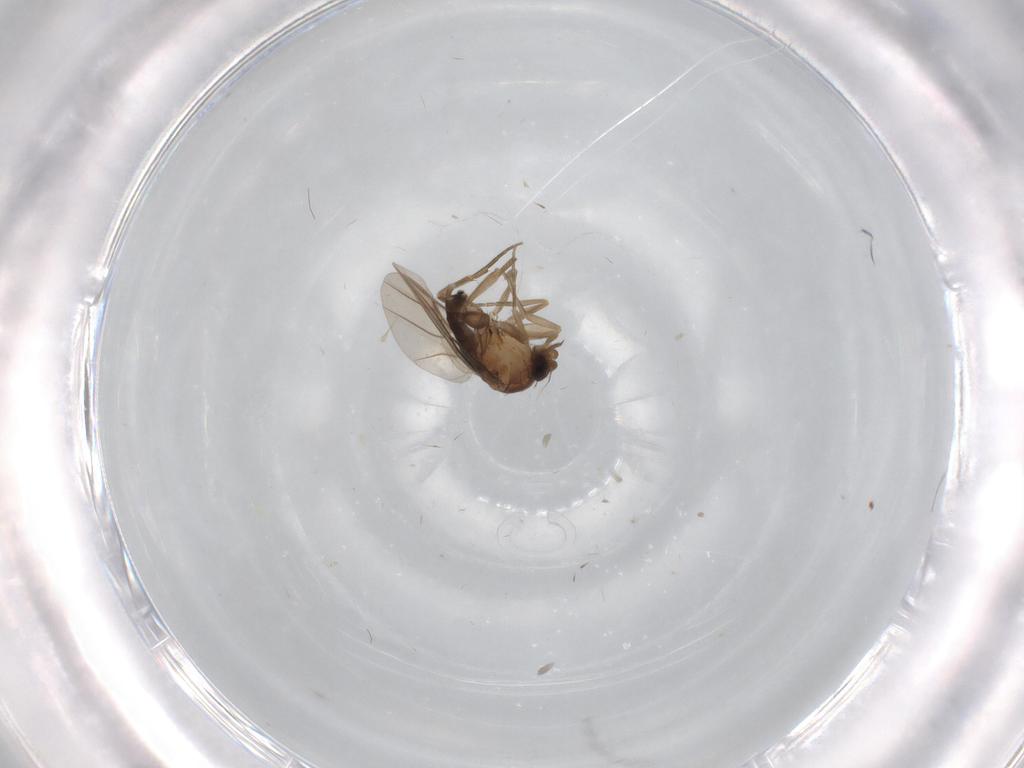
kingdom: Animalia
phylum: Arthropoda
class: Insecta
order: Diptera
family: Phoridae
